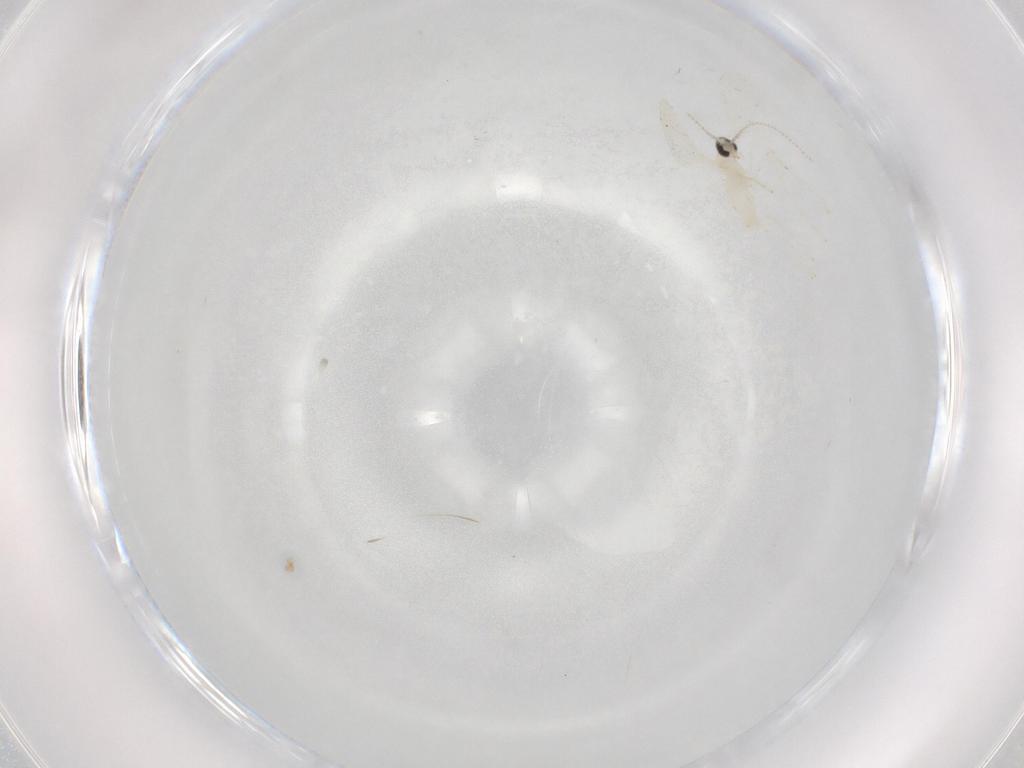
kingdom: Animalia
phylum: Arthropoda
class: Insecta
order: Diptera
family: Cecidomyiidae
